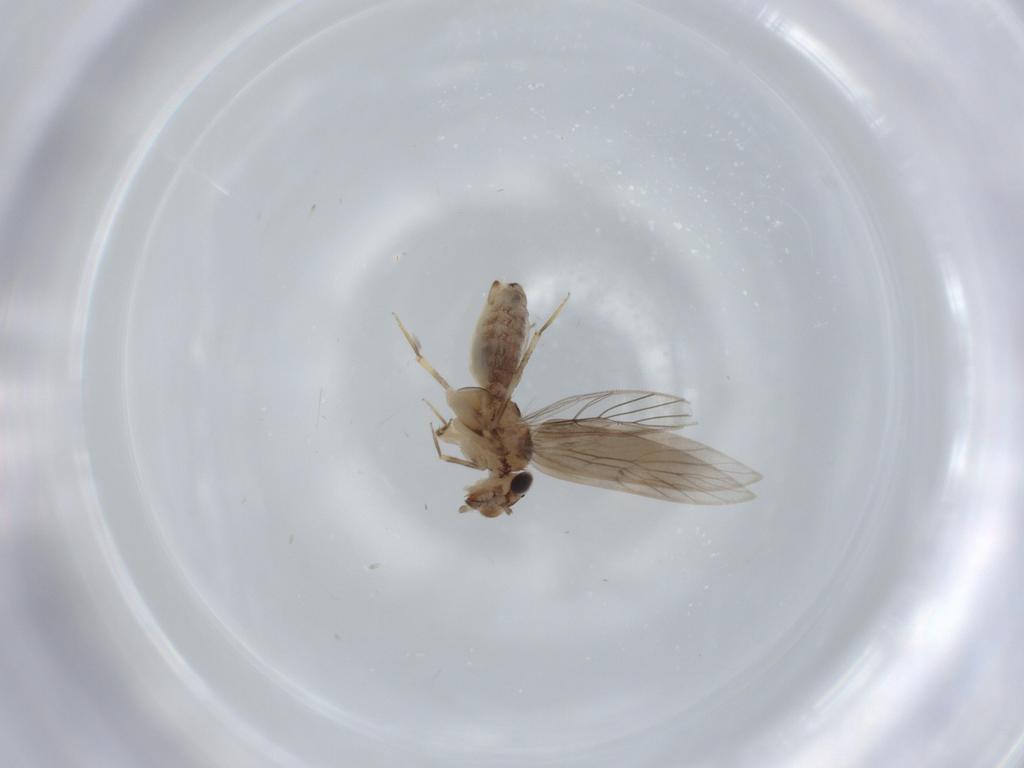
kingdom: Animalia
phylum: Arthropoda
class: Insecta
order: Psocodea
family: Lepidopsocidae
